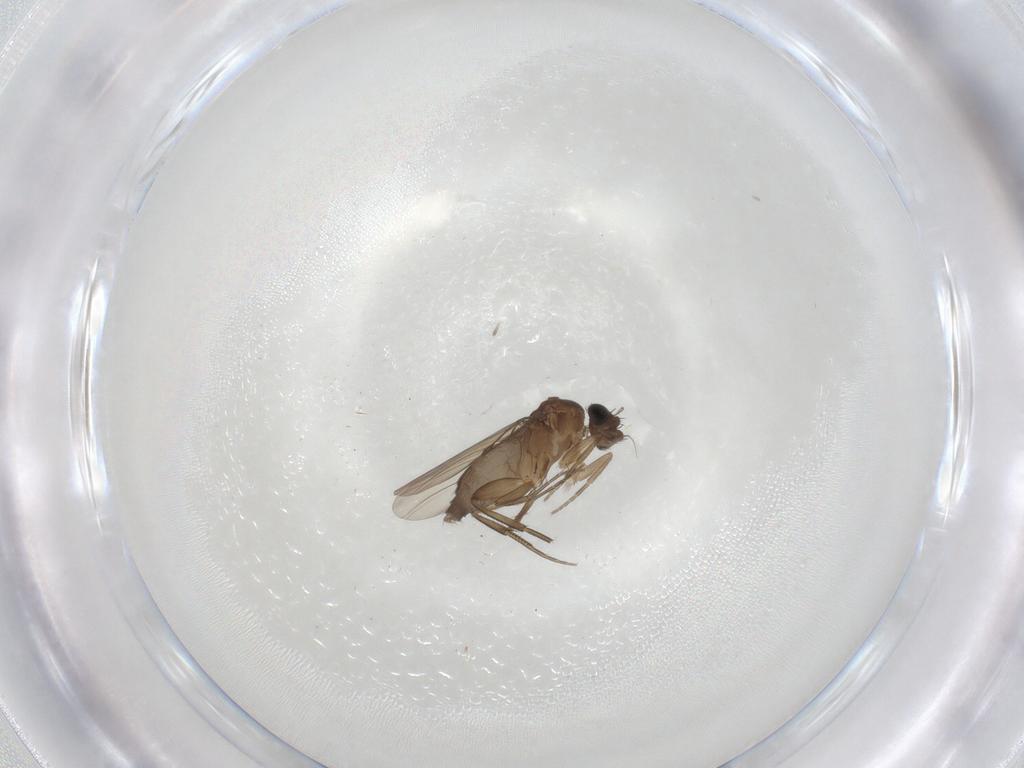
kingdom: Animalia
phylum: Arthropoda
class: Insecta
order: Diptera
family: Phoridae
